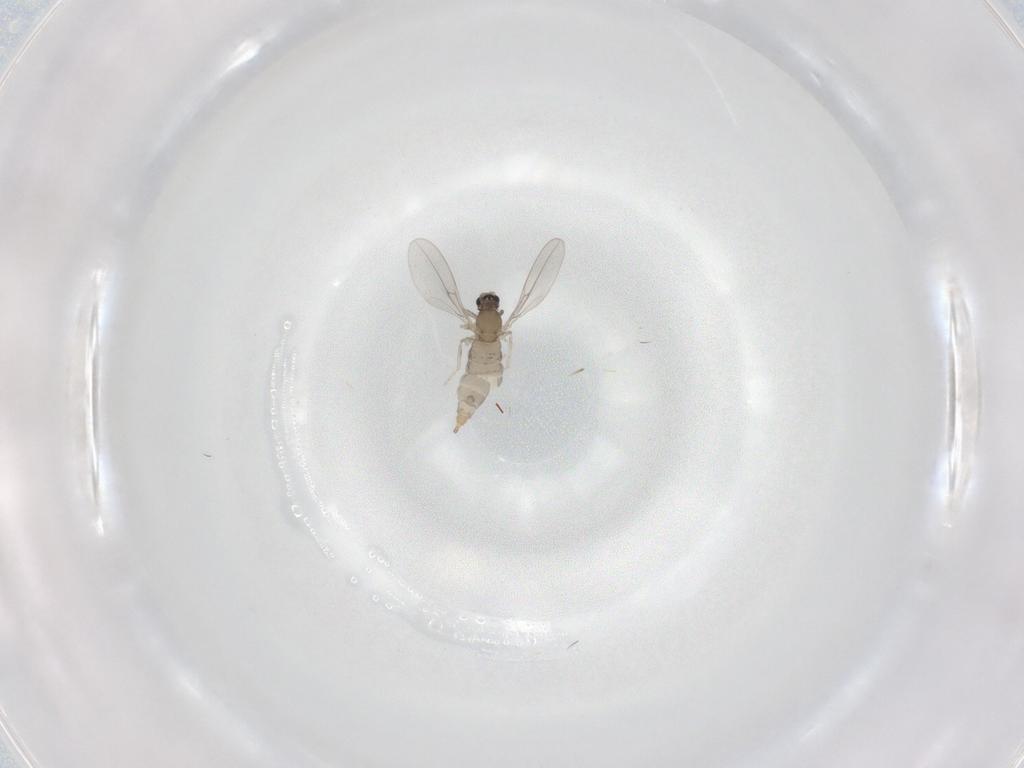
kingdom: Animalia
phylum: Arthropoda
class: Insecta
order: Diptera
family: Cecidomyiidae
